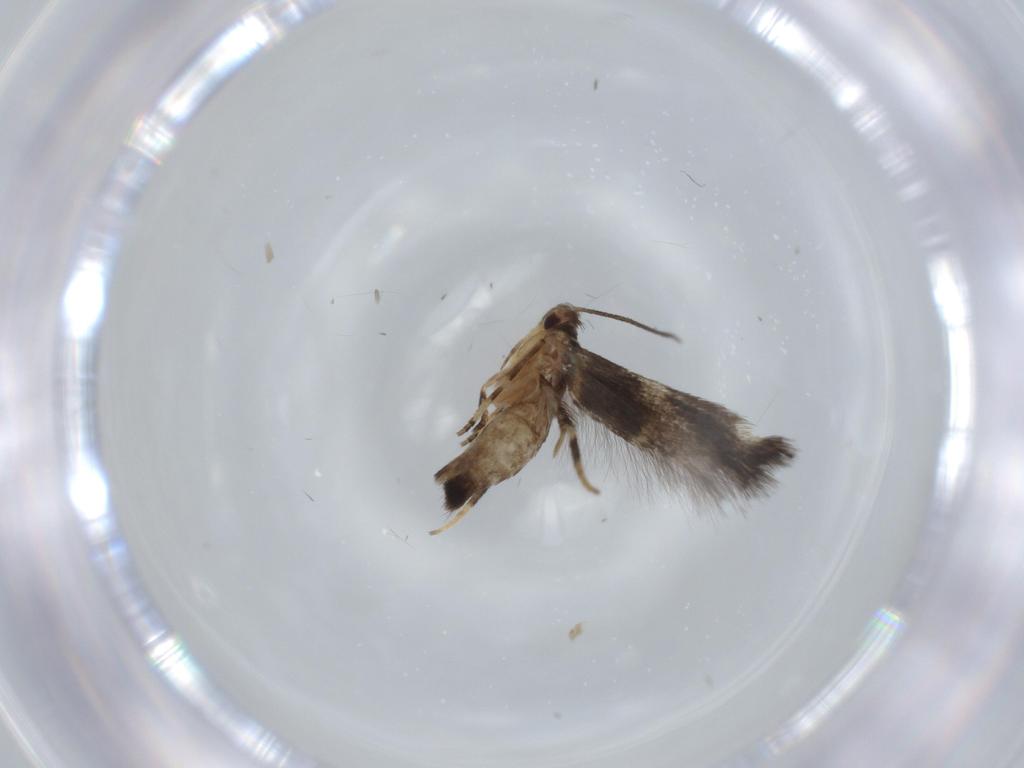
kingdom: Animalia
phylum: Arthropoda
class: Insecta
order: Lepidoptera
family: Cosmopterigidae
